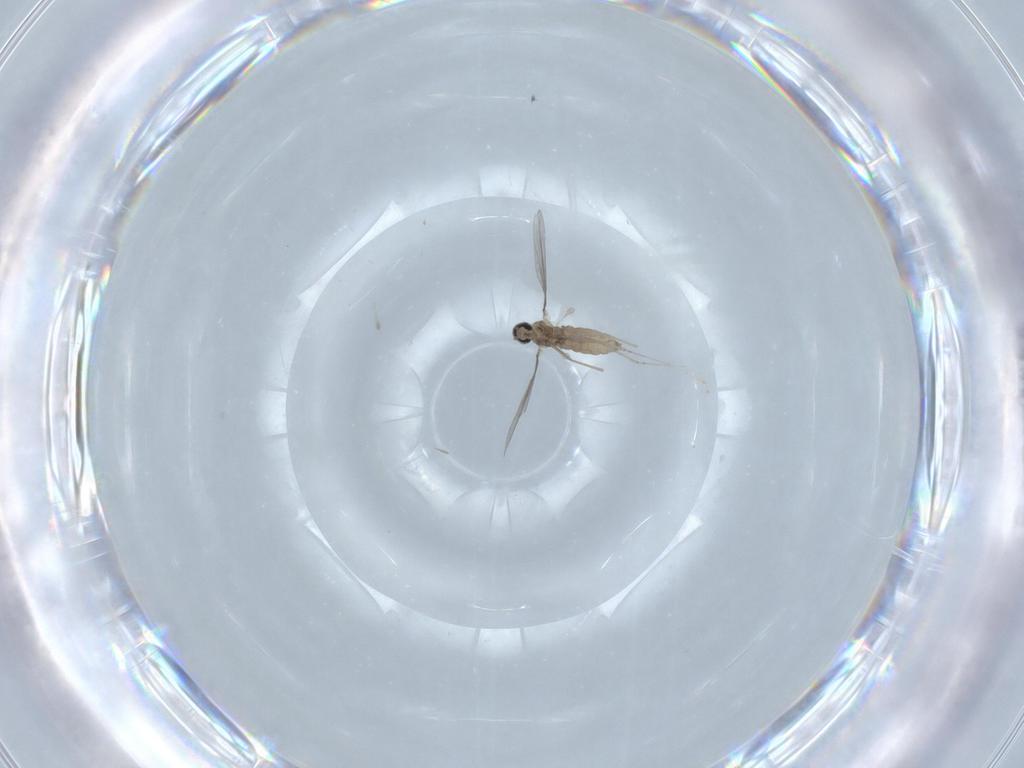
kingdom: Animalia
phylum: Arthropoda
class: Insecta
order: Diptera
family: Cecidomyiidae
